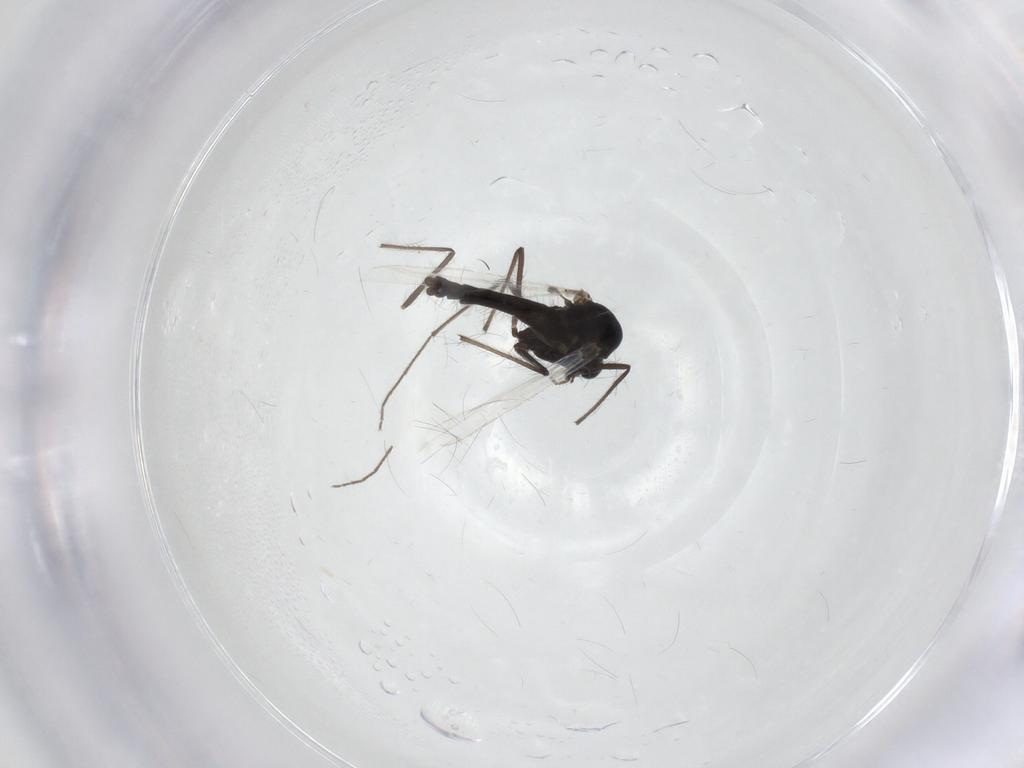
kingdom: Animalia
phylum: Arthropoda
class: Insecta
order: Diptera
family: Chironomidae
